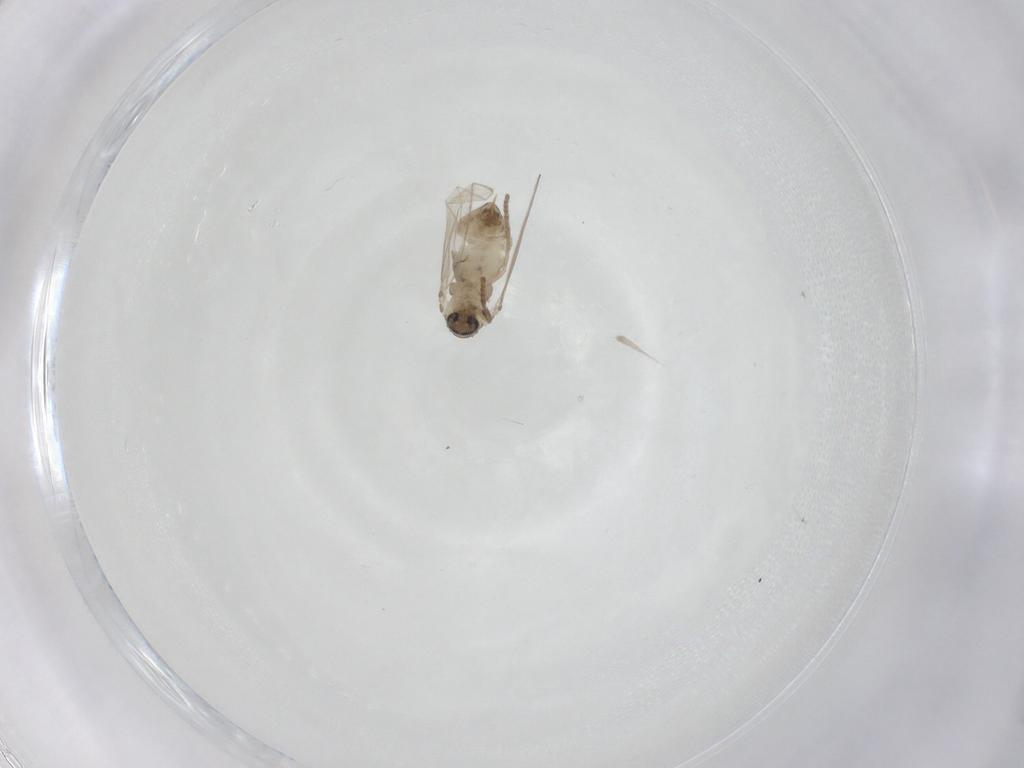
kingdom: Animalia
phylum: Arthropoda
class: Insecta
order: Diptera
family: Psychodidae
